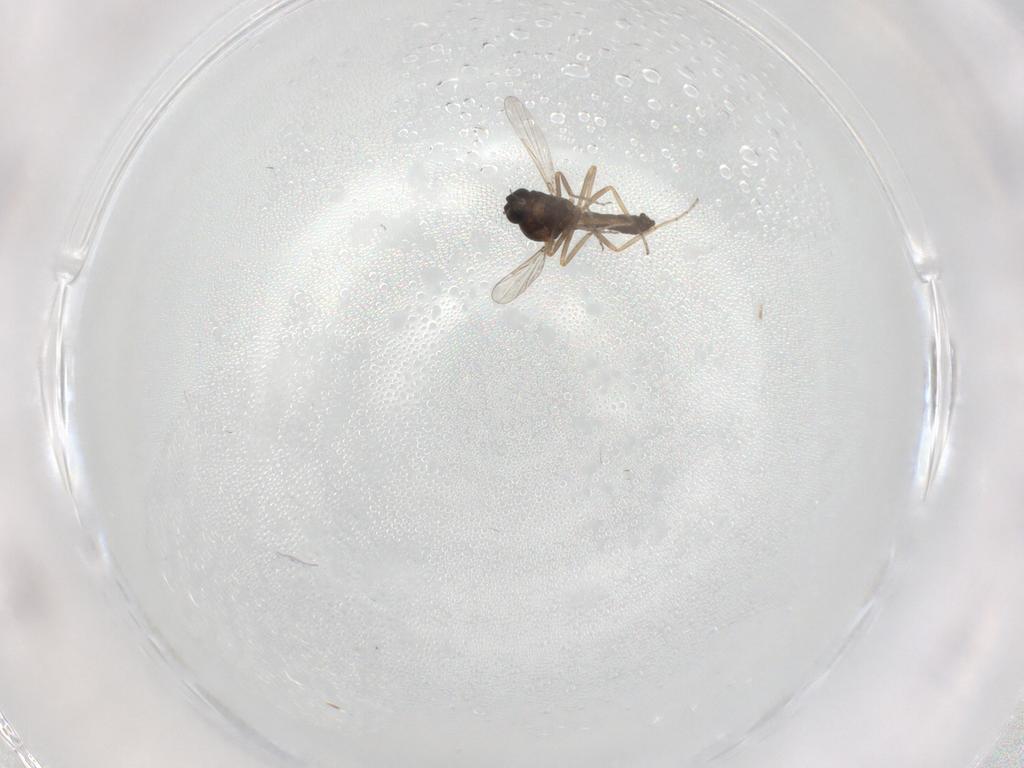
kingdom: Animalia
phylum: Arthropoda
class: Insecta
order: Diptera
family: Ceratopogonidae
